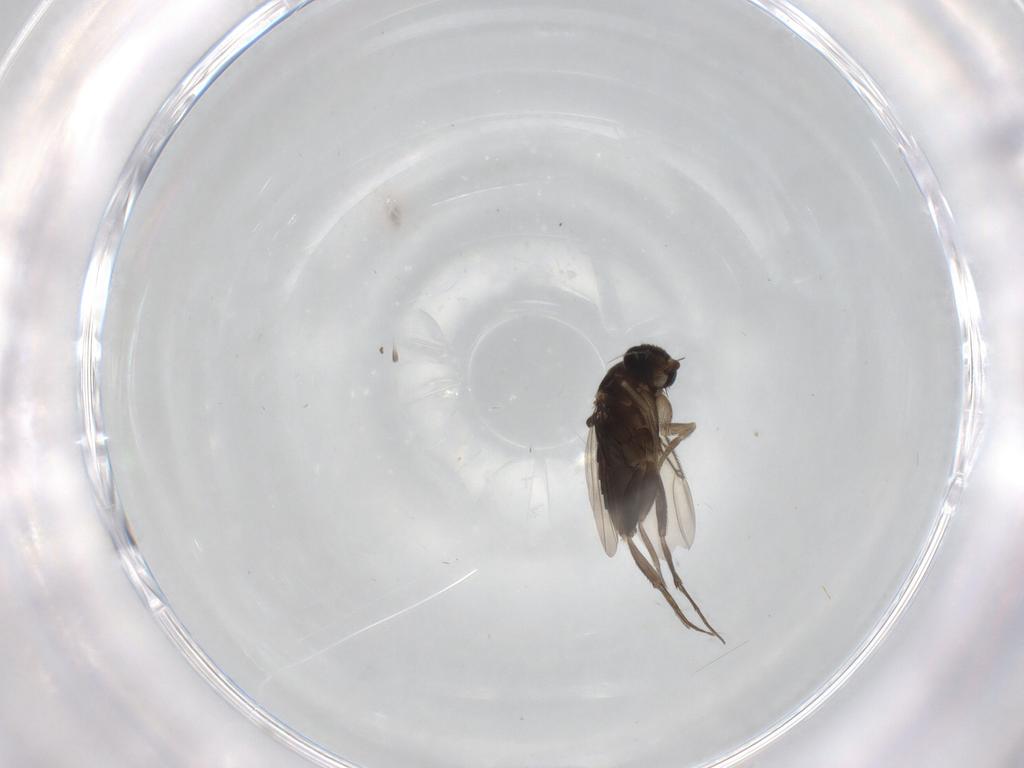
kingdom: Animalia
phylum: Arthropoda
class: Insecta
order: Diptera
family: Phoridae
